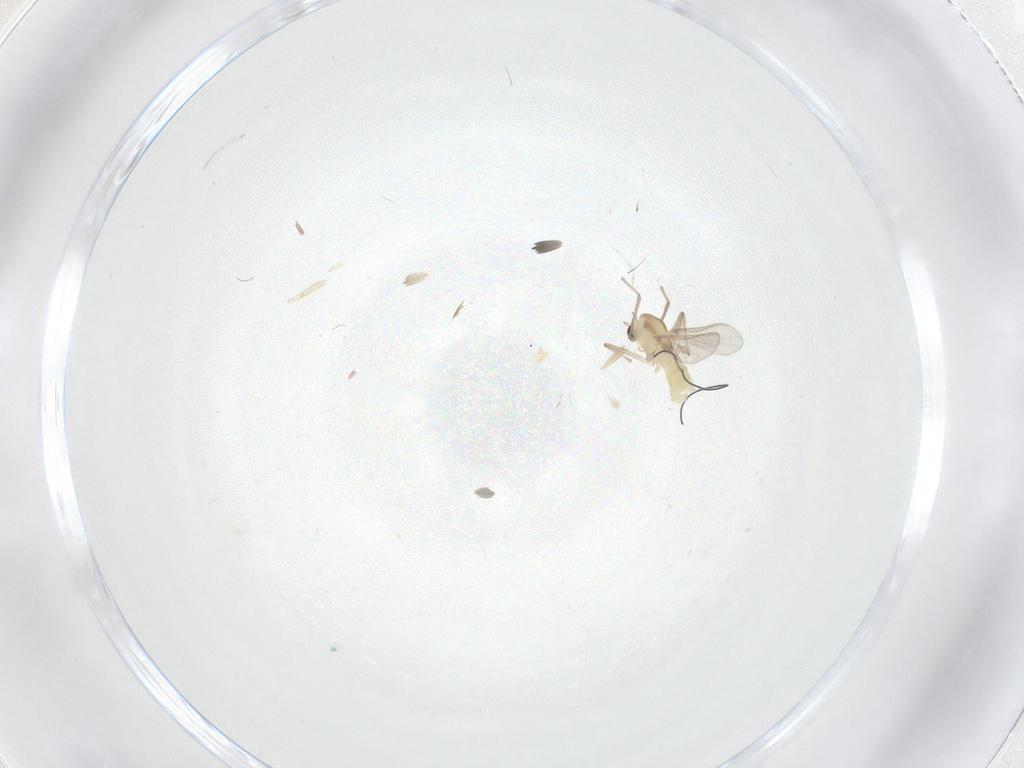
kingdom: Animalia
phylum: Arthropoda
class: Insecta
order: Diptera
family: Chironomidae
